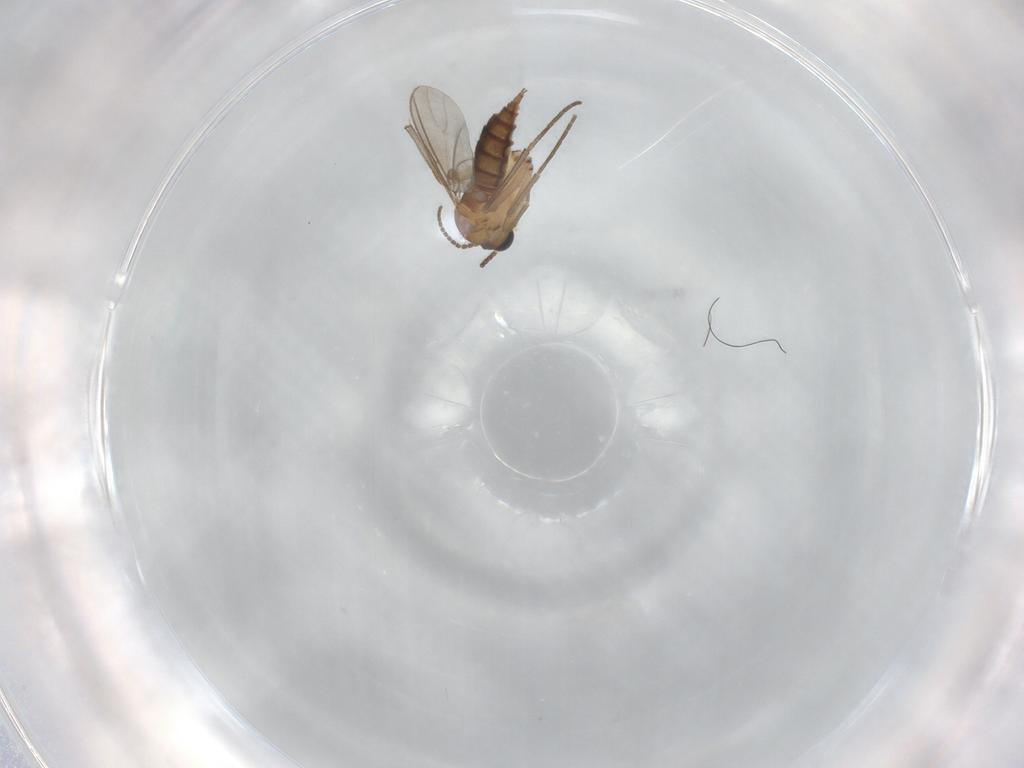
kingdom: Animalia
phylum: Arthropoda
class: Insecta
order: Diptera
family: Sciaridae
